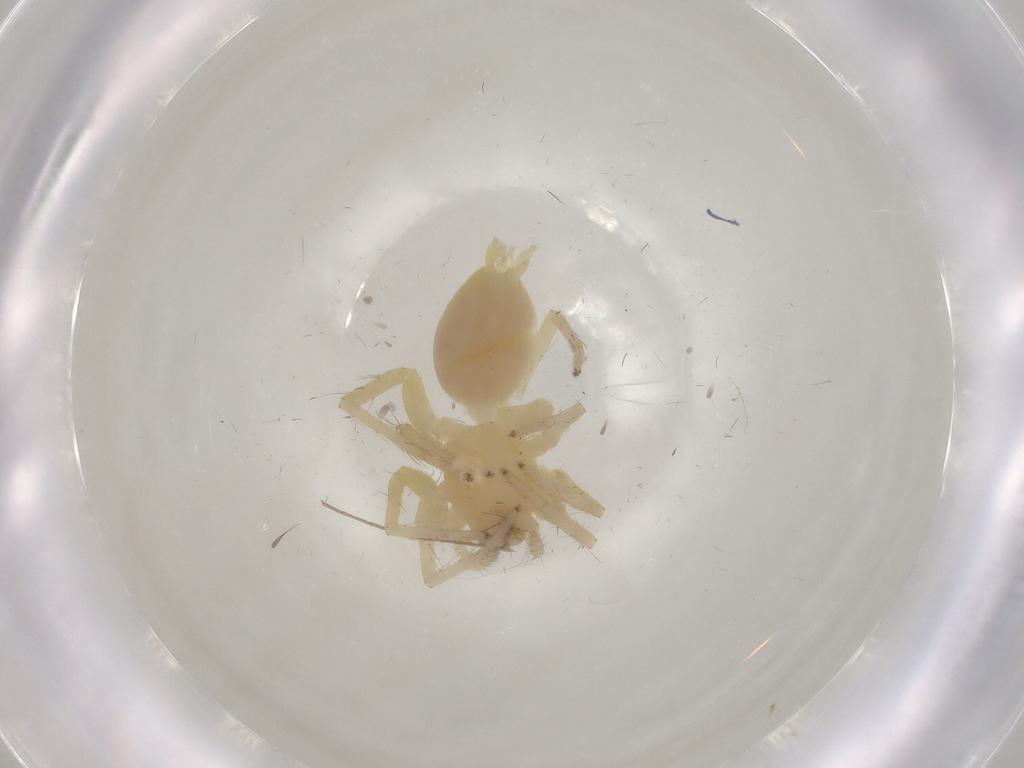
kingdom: Animalia
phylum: Arthropoda
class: Arachnida
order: Araneae
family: Anyphaenidae
